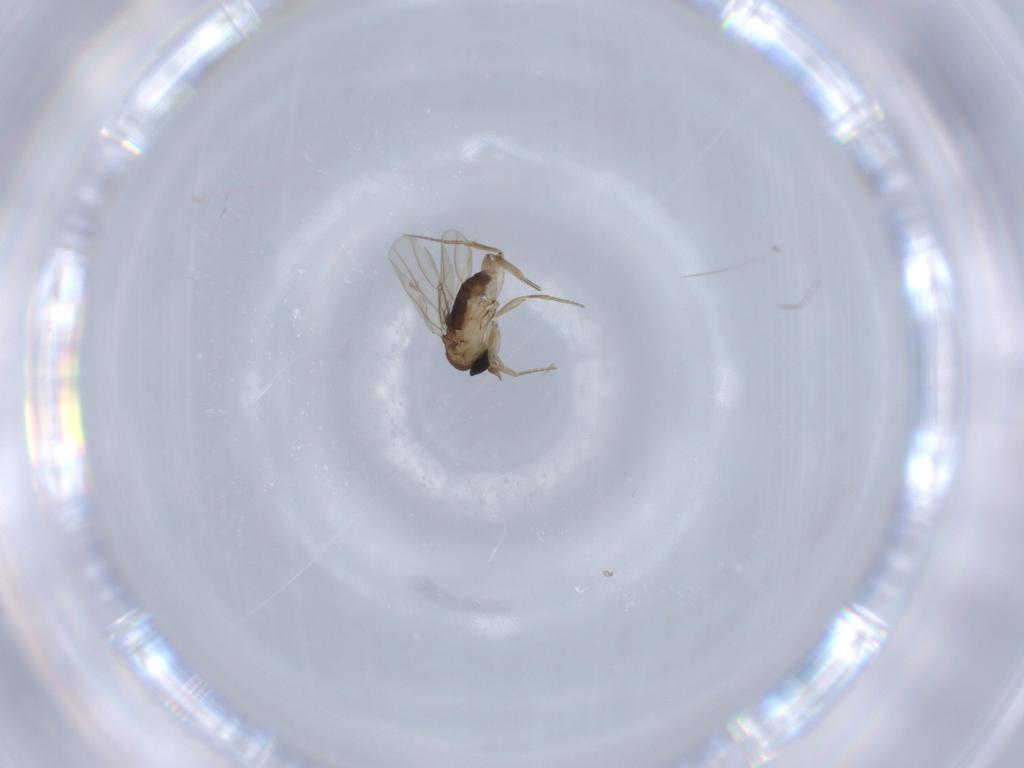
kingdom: Animalia
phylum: Arthropoda
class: Insecta
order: Diptera
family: Phoridae
